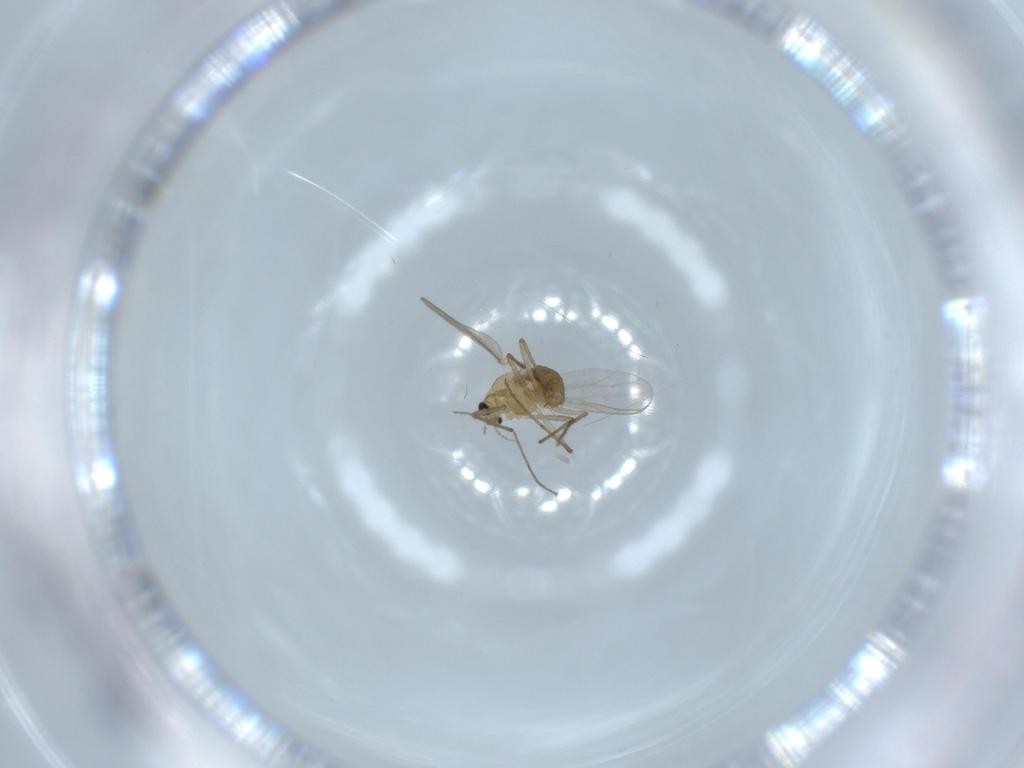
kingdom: Animalia
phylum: Arthropoda
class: Insecta
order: Diptera
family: Chironomidae
